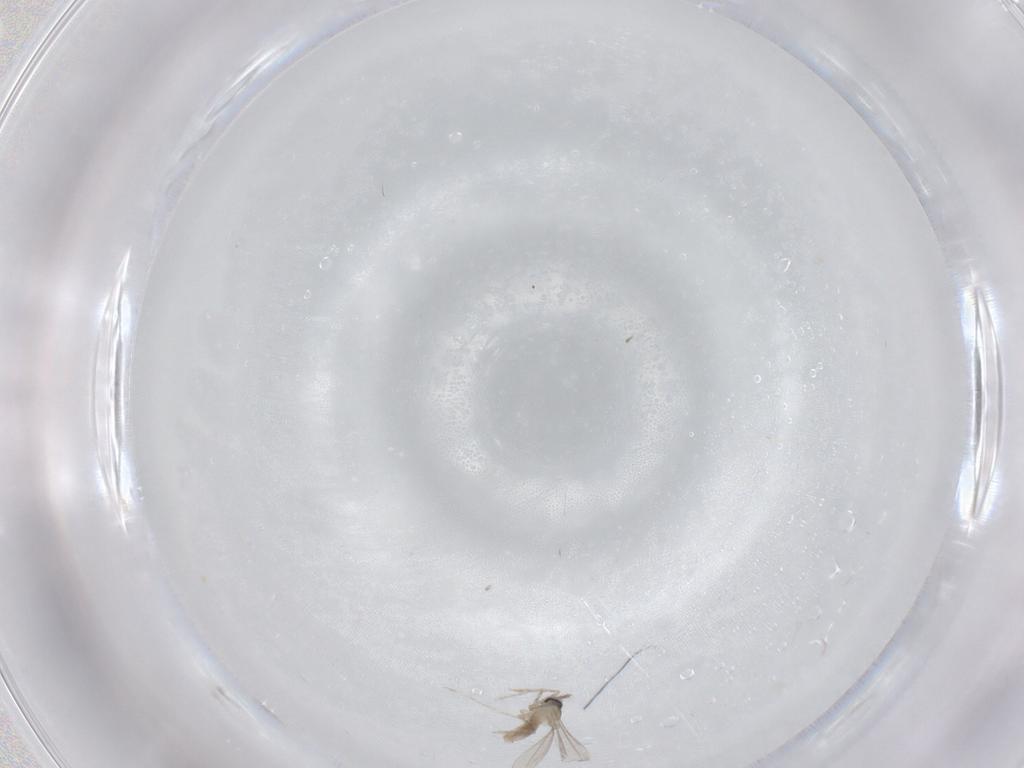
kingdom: Animalia
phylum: Arthropoda
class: Insecta
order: Diptera
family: Cecidomyiidae
